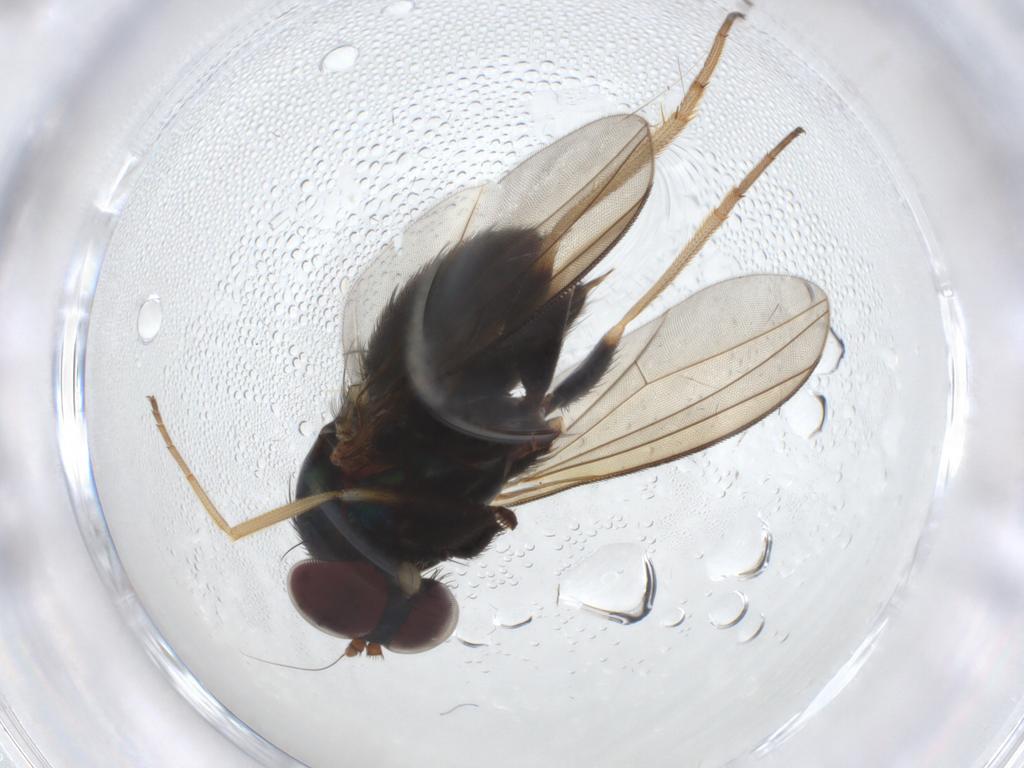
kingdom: Animalia
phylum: Arthropoda
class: Insecta
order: Diptera
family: Dolichopodidae
